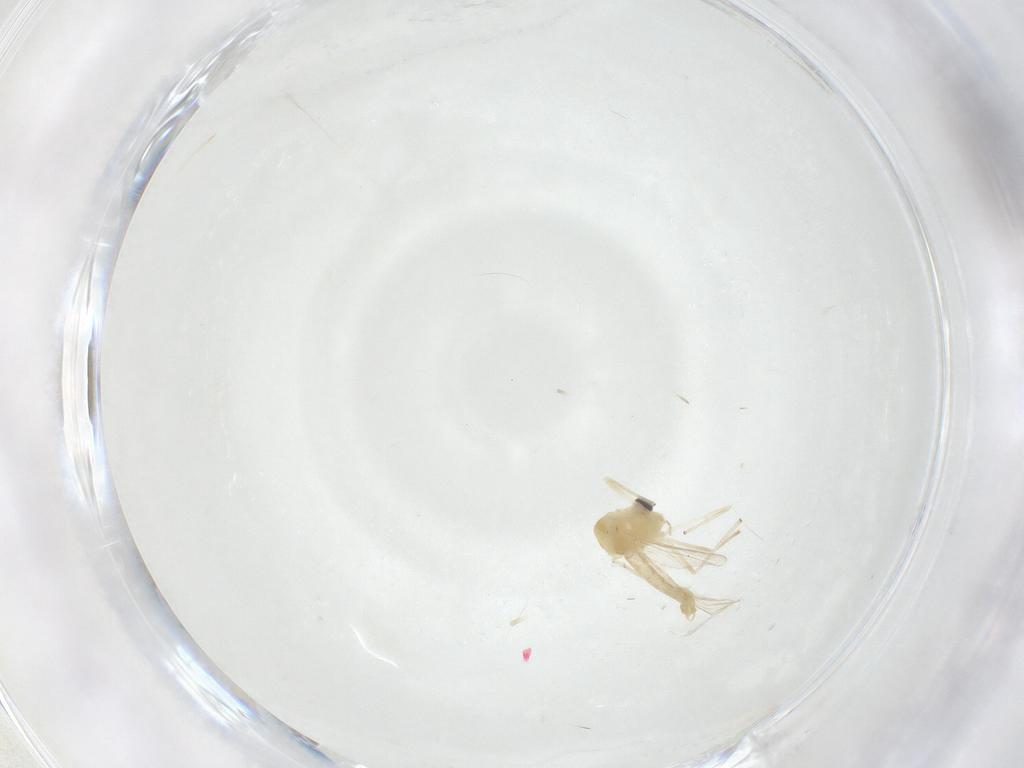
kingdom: Animalia
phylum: Arthropoda
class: Insecta
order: Diptera
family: Chironomidae
